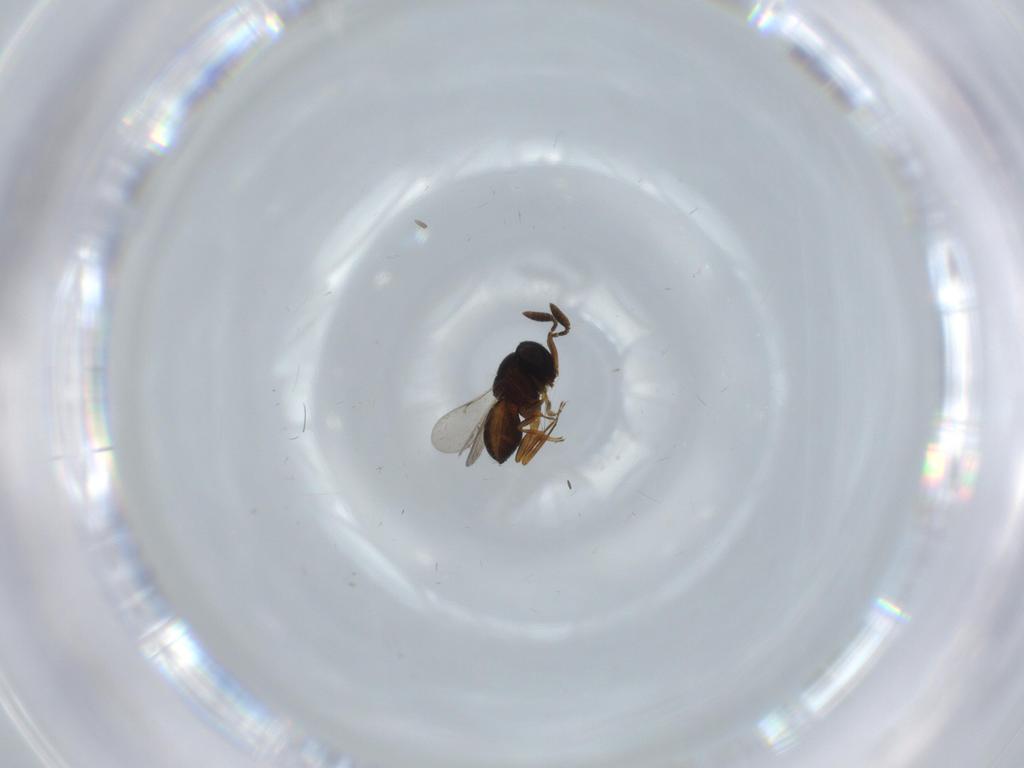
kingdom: Animalia
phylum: Arthropoda
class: Insecta
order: Hymenoptera
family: Scelionidae
